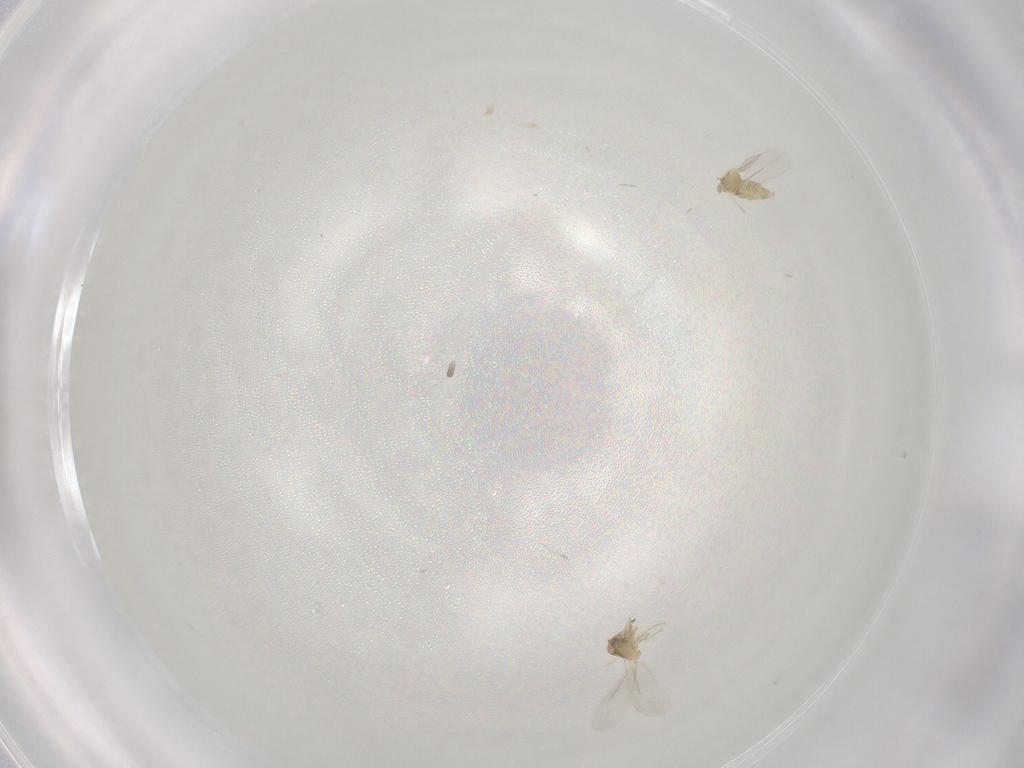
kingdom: Animalia
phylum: Arthropoda
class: Insecta
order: Hemiptera
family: Aleyrodidae
